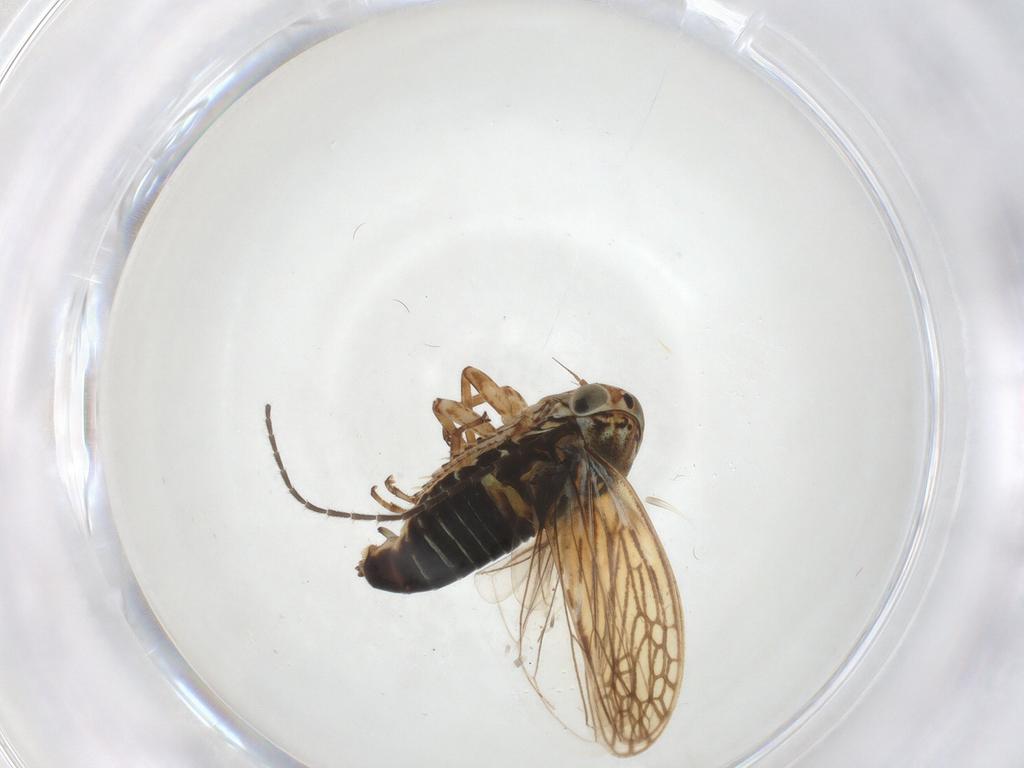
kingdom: Animalia
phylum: Arthropoda
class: Insecta
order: Hemiptera
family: Cicadellidae
